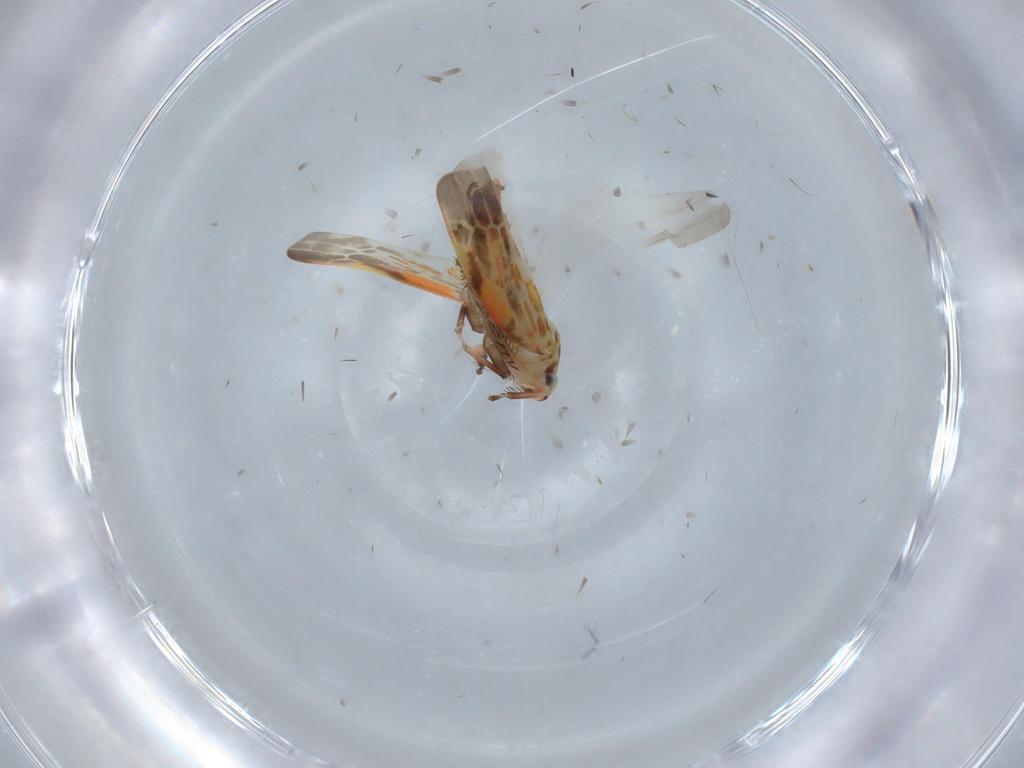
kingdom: Animalia
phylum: Arthropoda
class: Insecta
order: Hemiptera
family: Cicadellidae
